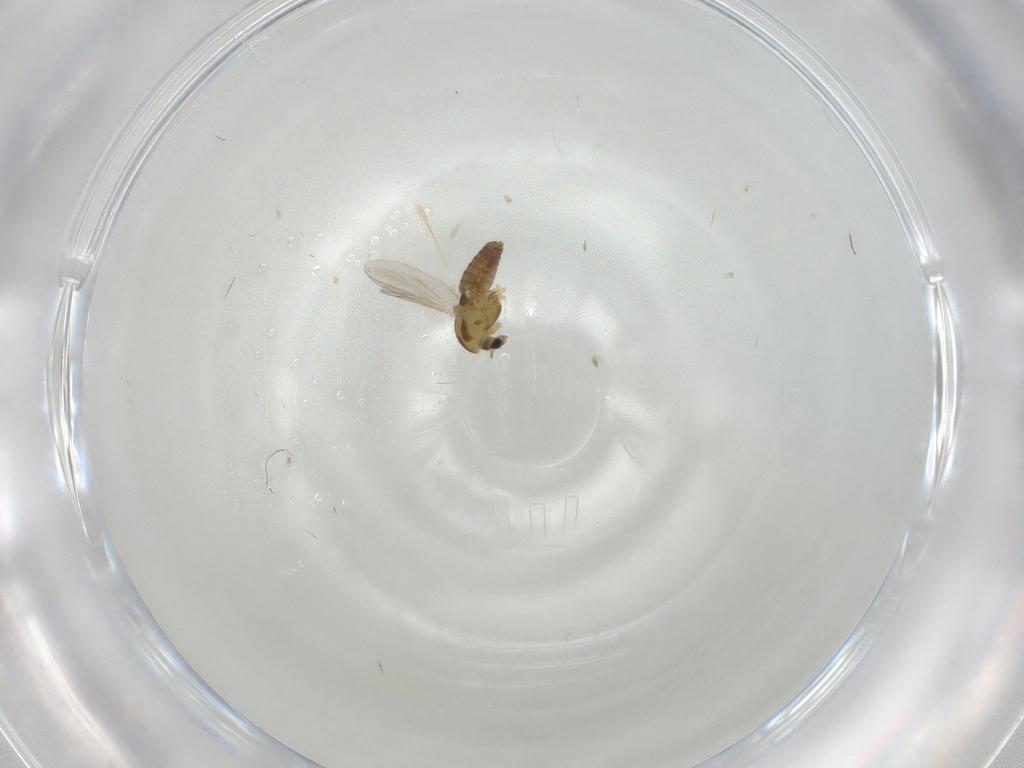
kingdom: Animalia
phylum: Arthropoda
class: Insecta
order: Diptera
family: Chironomidae
